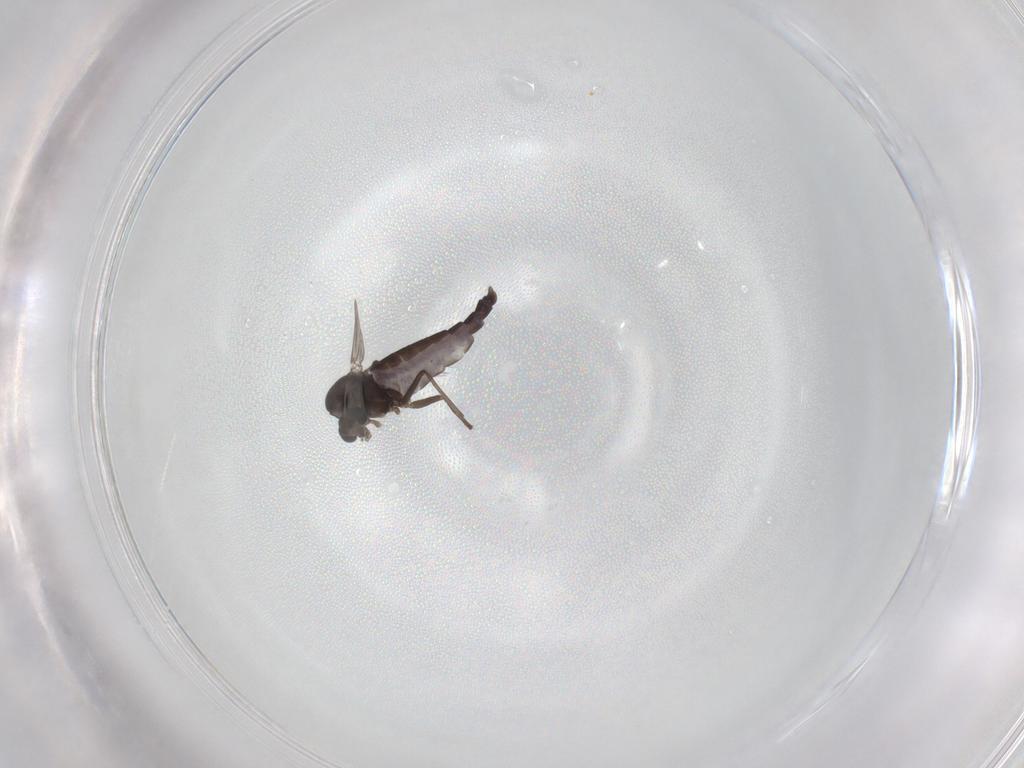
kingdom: Animalia
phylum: Arthropoda
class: Insecta
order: Diptera
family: Chironomidae
